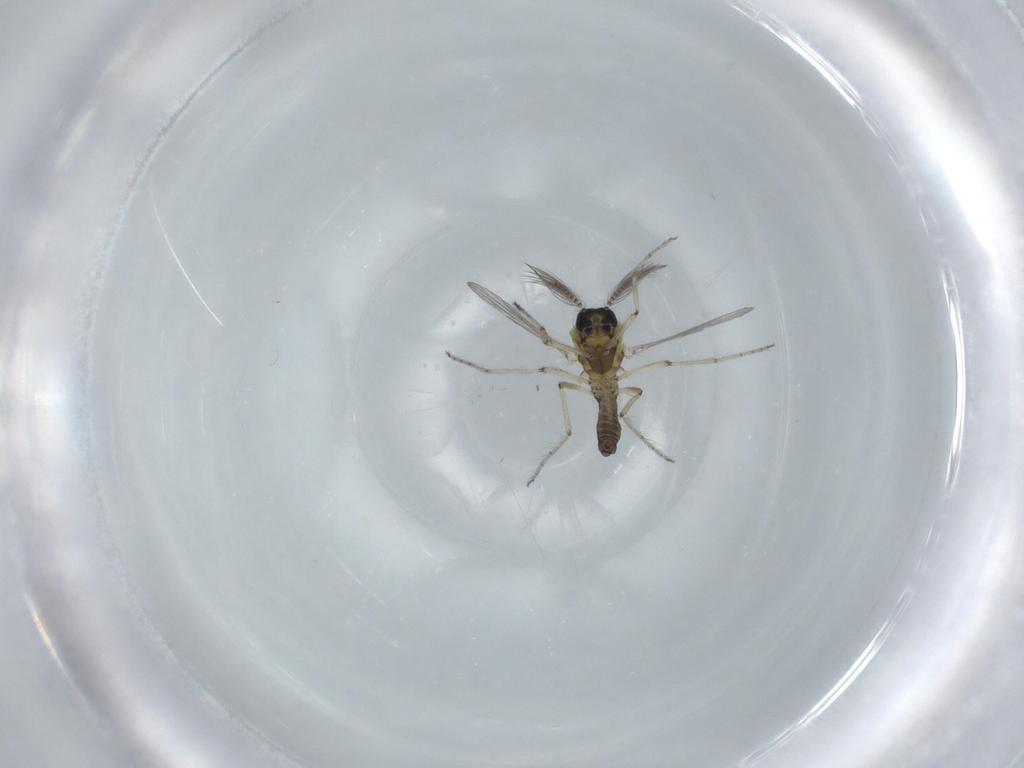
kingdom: Animalia
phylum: Arthropoda
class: Insecta
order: Diptera
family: Ceratopogonidae
